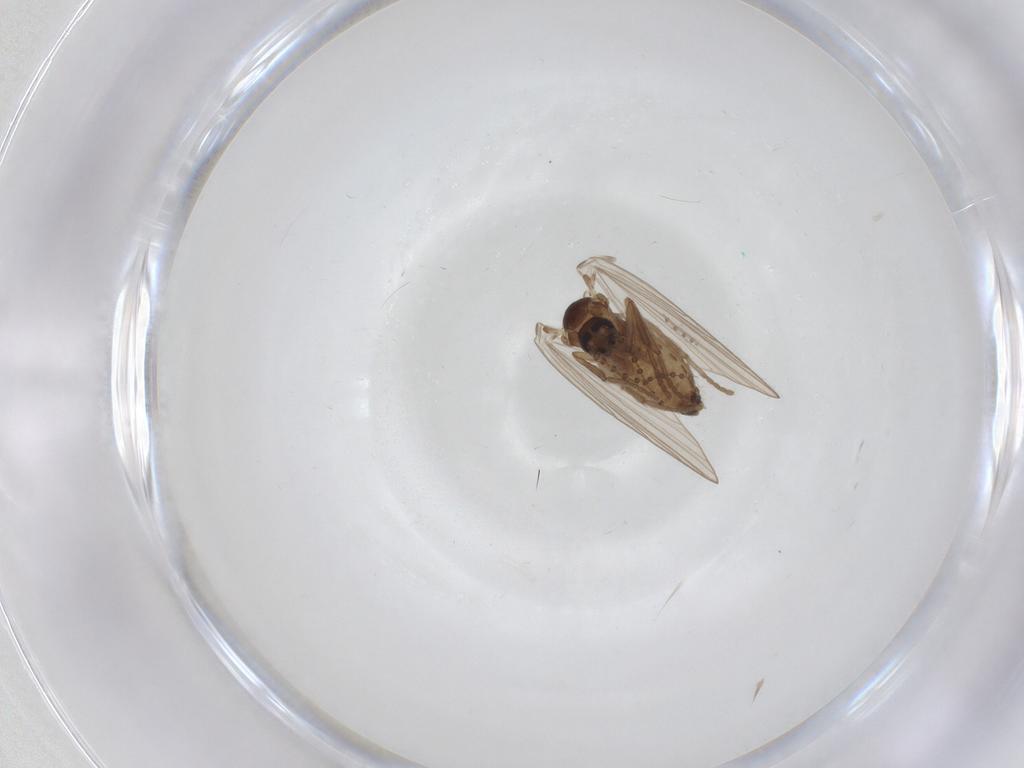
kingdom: Animalia
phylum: Arthropoda
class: Insecta
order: Diptera
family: Psychodidae
